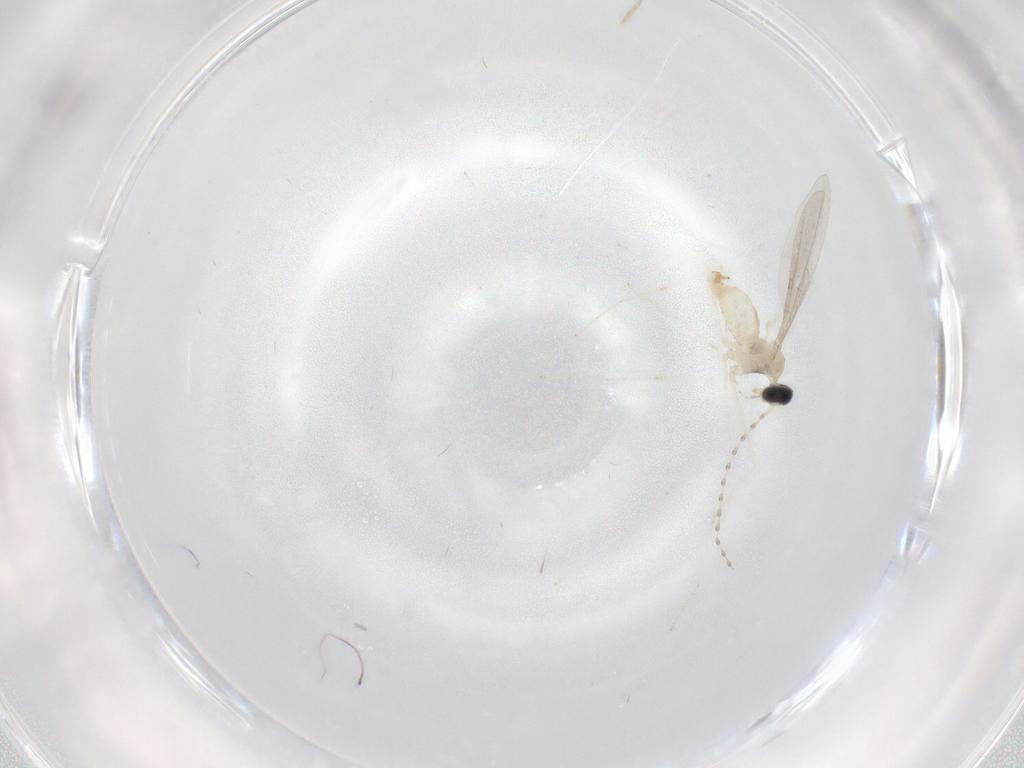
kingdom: Animalia
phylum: Arthropoda
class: Insecta
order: Diptera
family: Cecidomyiidae
